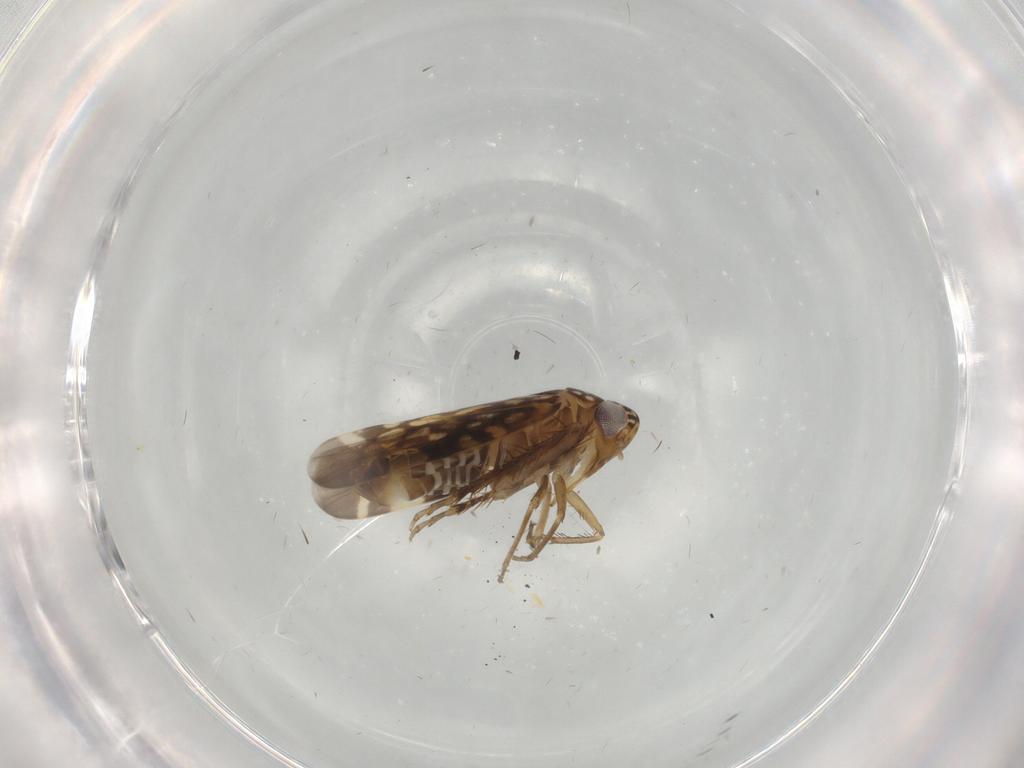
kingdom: Animalia
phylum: Arthropoda
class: Insecta
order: Hemiptera
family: Cicadellidae
